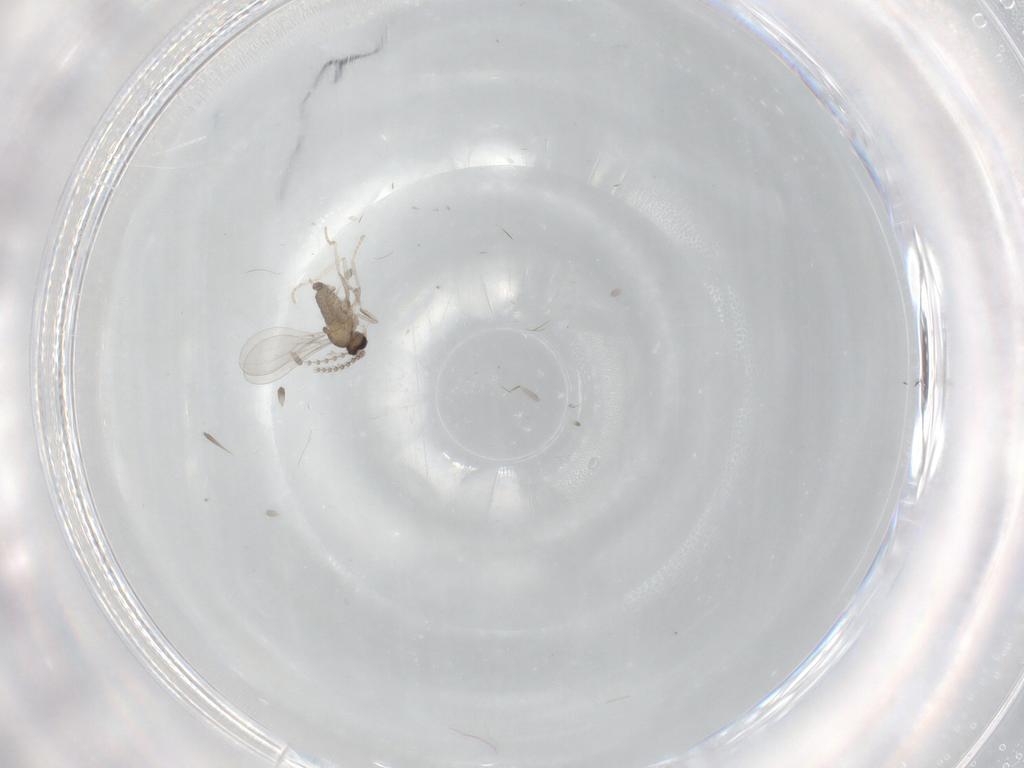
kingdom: Animalia
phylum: Arthropoda
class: Insecta
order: Diptera
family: Cecidomyiidae
